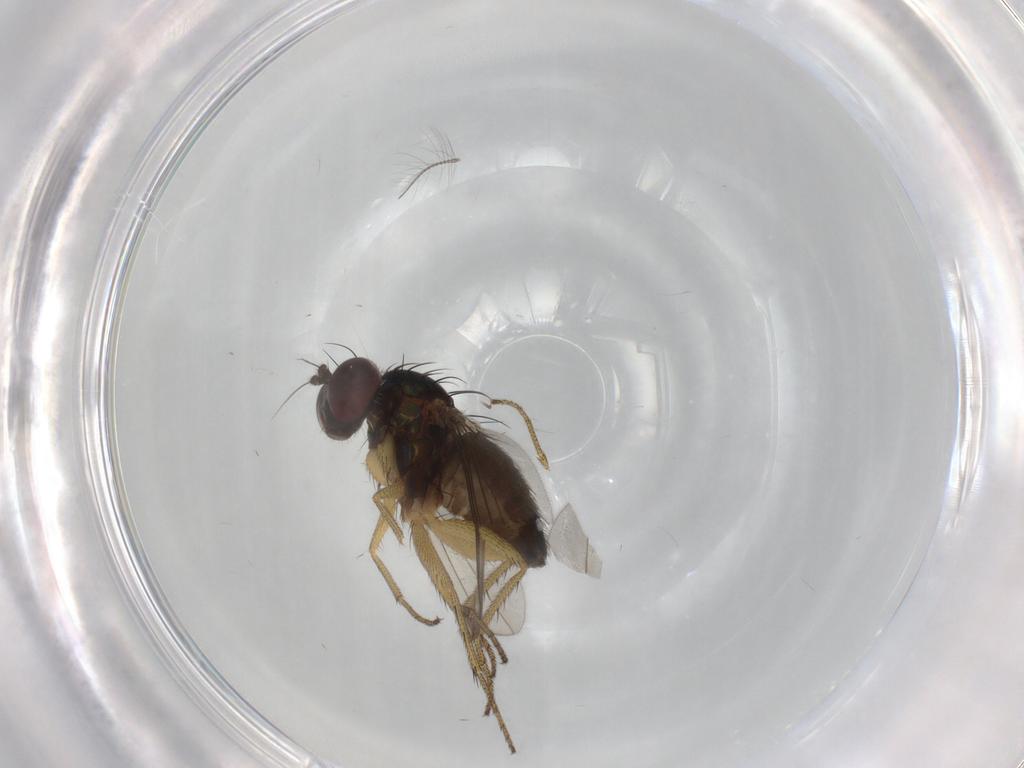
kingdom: Animalia
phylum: Arthropoda
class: Insecta
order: Diptera
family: Dolichopodidae
